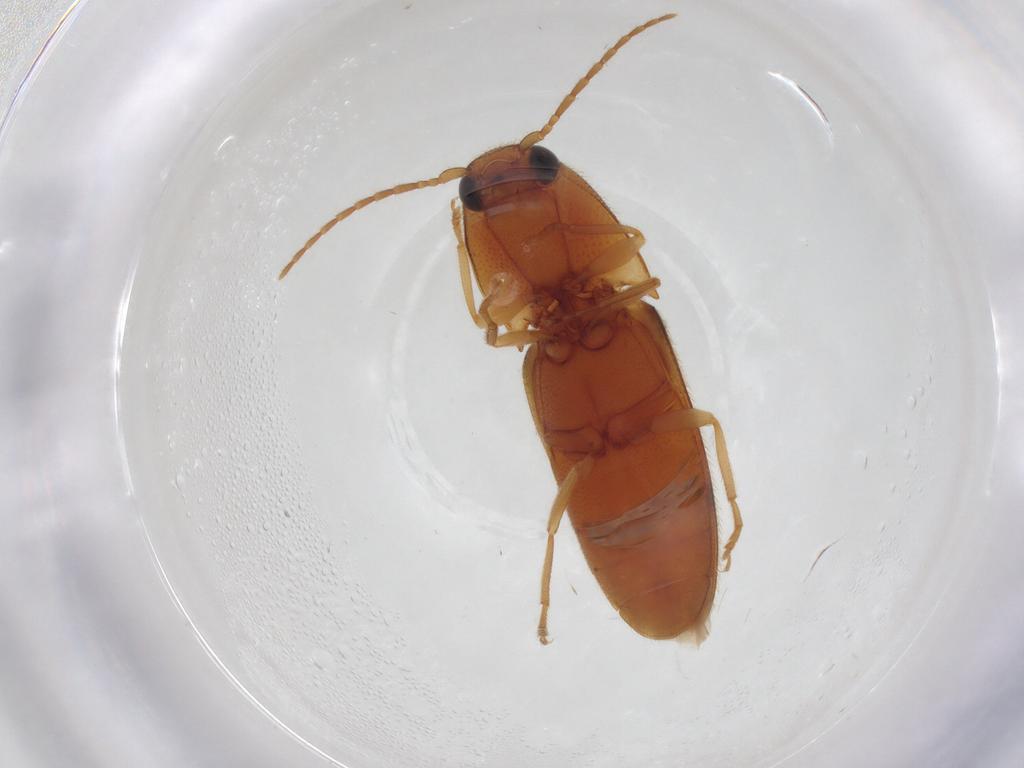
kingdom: Animalia
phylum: Arthropoda
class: Insecta
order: Coleoptera
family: Elateridae
